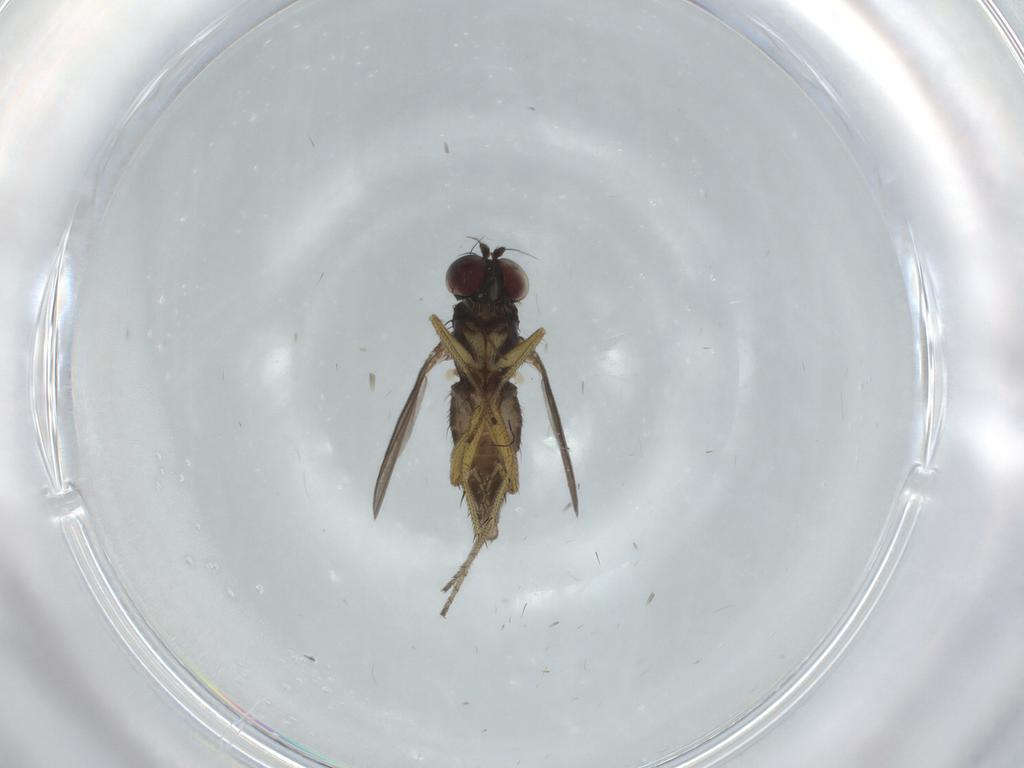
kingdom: Animalia
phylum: Arthropoda
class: Insecta
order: Diptera
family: Dolichopodidae
